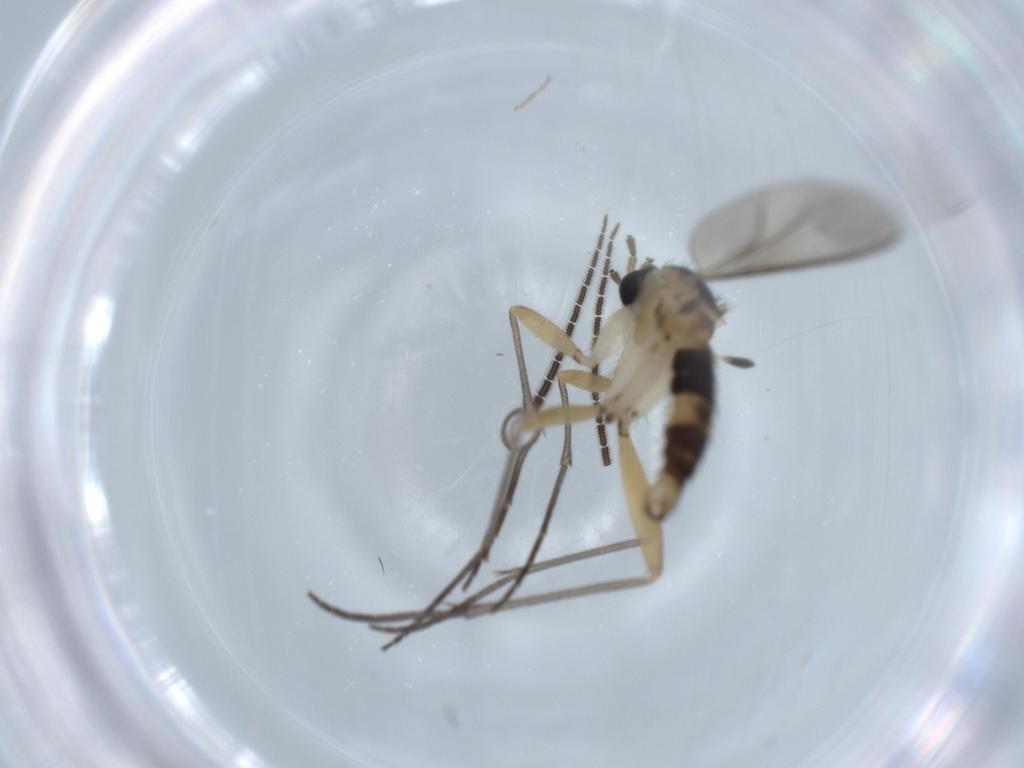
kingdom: Animalia
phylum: Arthropoda
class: Insecta
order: Diptera
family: Sciaridae
